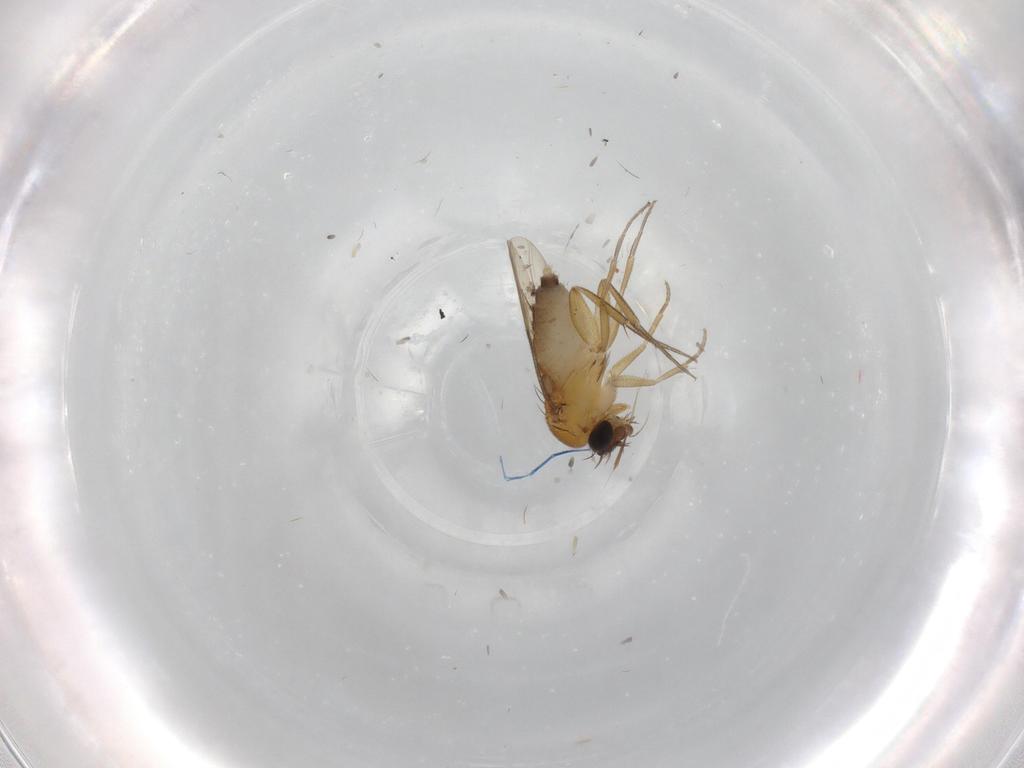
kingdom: Animalia
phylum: Arthropoda
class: Insecta
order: Diptera
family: Phoridae
